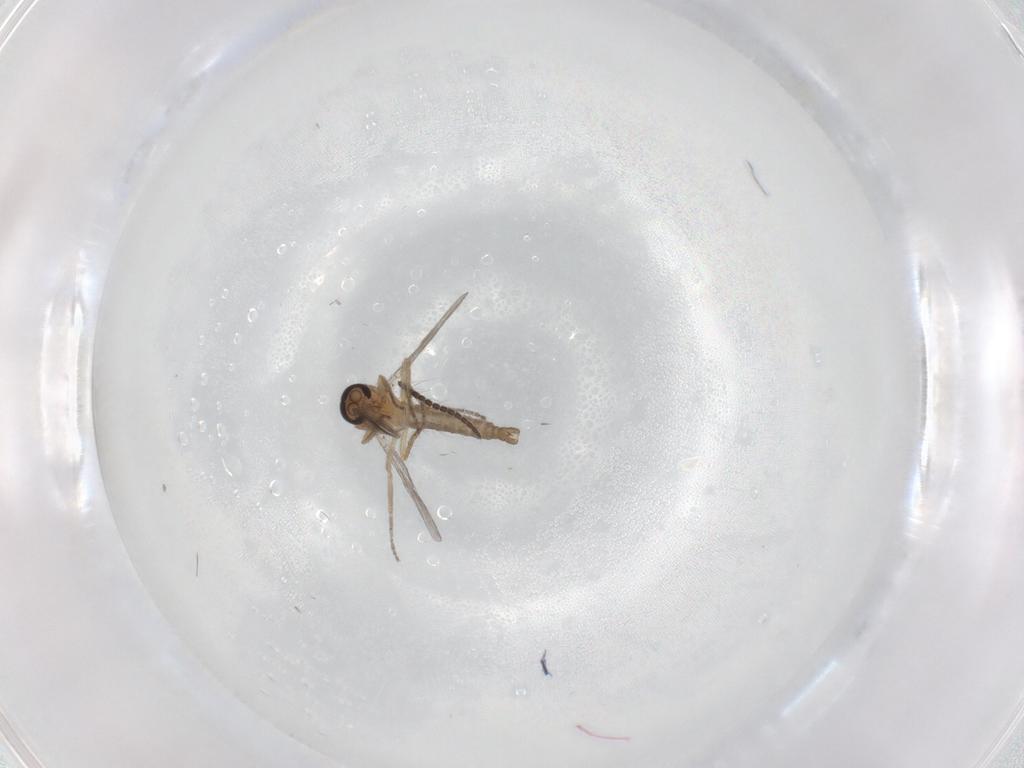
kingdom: Animalia
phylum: Arthropoda
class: Insecta
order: Diptera
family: Ceratopogonidae
